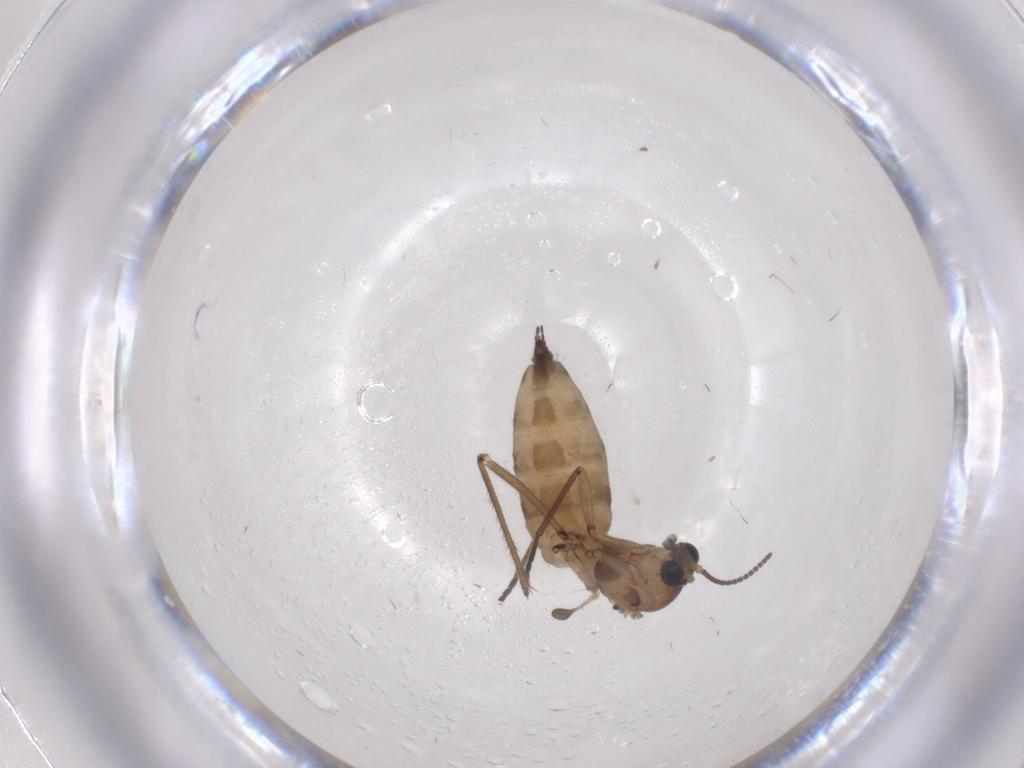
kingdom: Animalia
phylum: Arthropoda
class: Insecta
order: Diptera
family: Sciaridae
